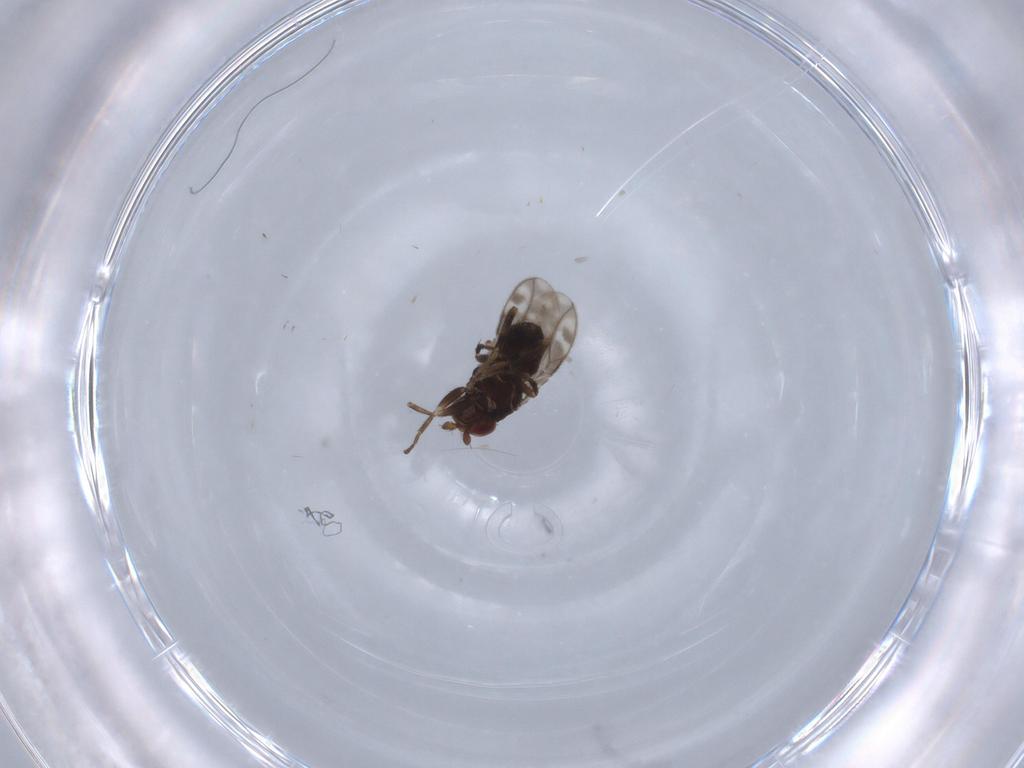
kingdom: Animalia
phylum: Arthropoda
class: Insecta
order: Diptera
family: Sphaeroceridae
